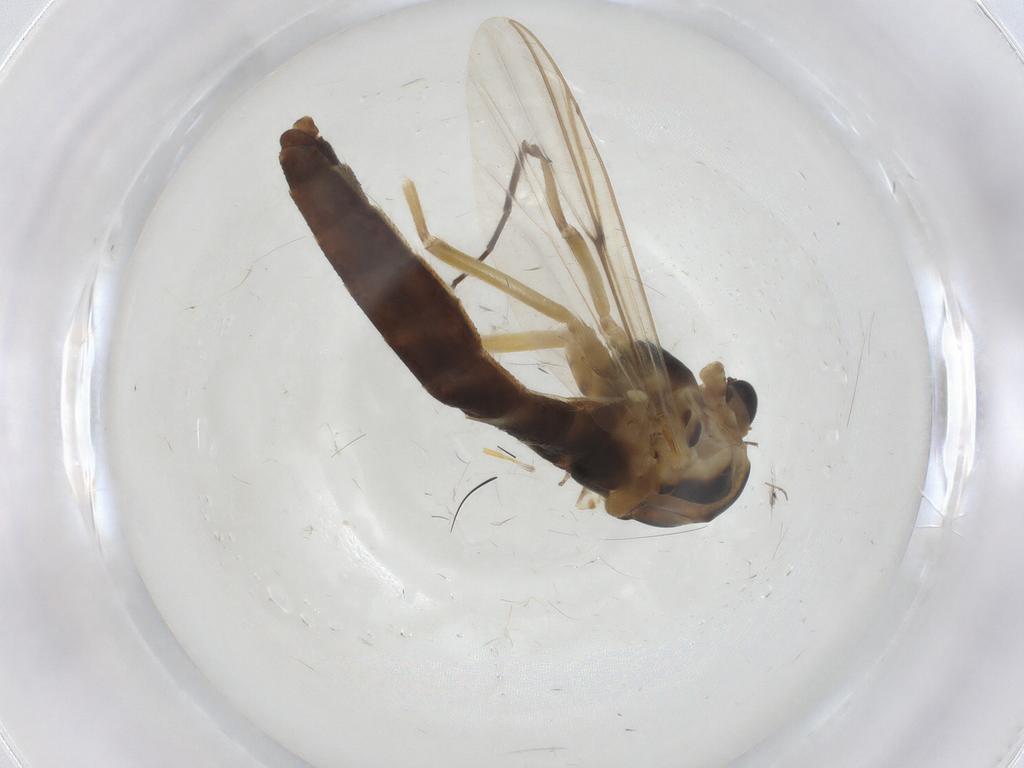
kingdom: Animalia
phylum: Arthropoda
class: Insecta
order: Diptera
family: Chironomidae
